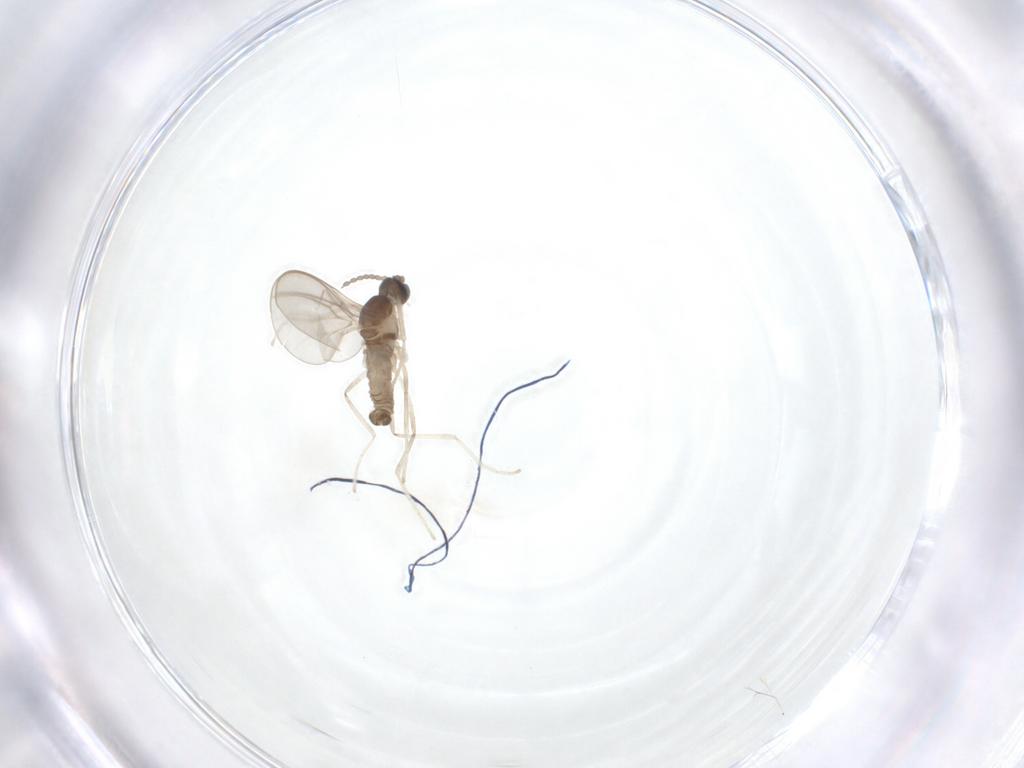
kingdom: Animalia
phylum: Arthropoda
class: Insecta
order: Diptera
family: Cecidomyiidae
